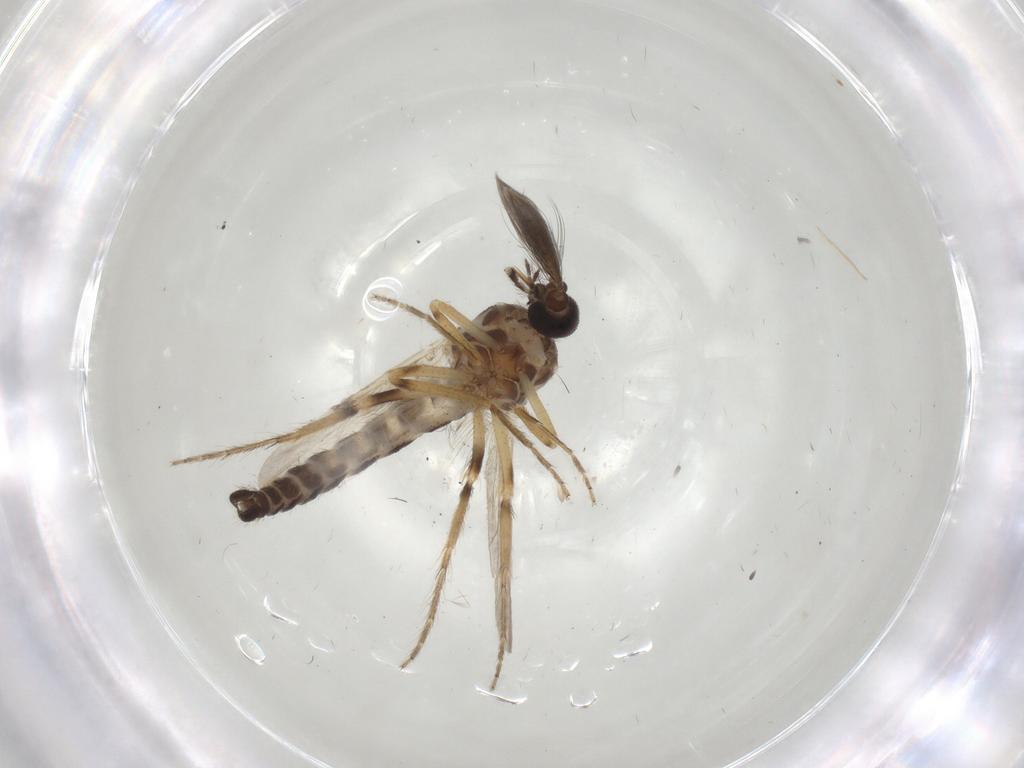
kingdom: Animalia
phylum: Arthropoda
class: Insecta
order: Diptera
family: Ceratopogonidae
